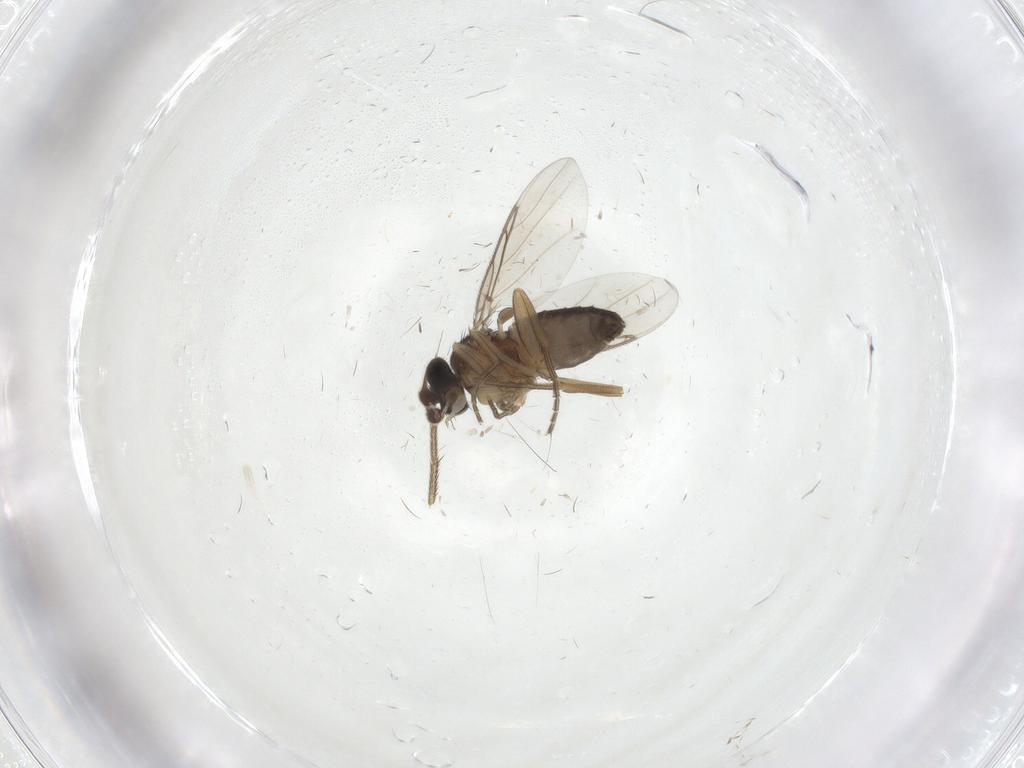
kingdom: Animalia
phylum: Arthropoda
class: Insecta
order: Diptera
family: Phoridae
